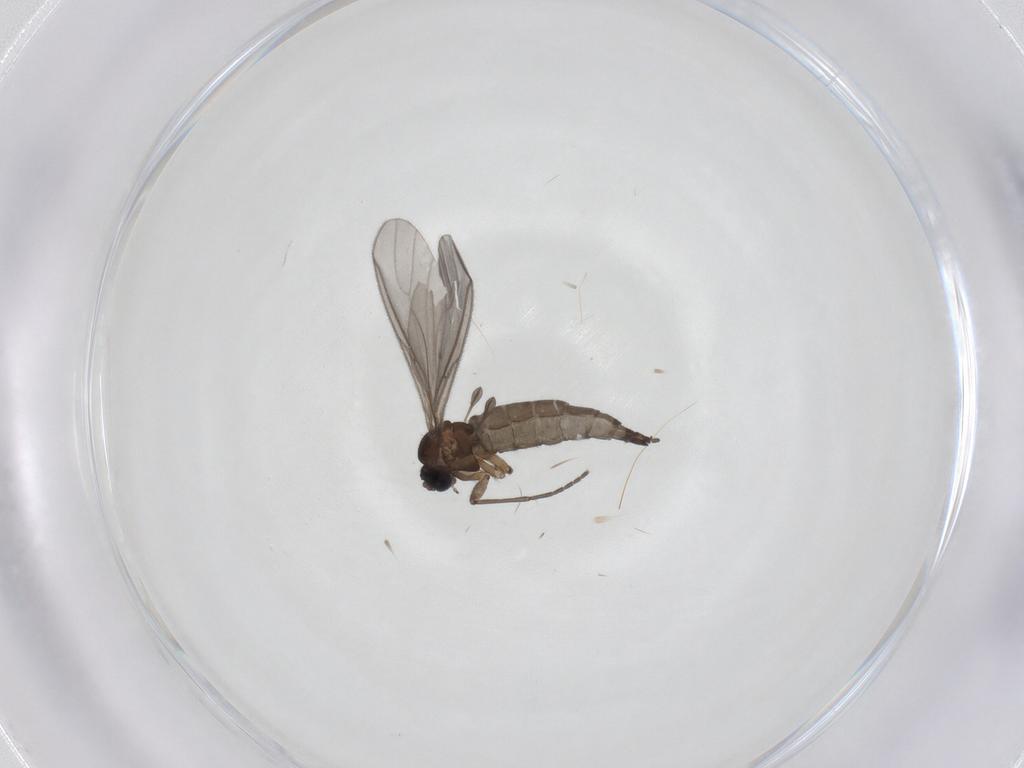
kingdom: Animalia
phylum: Arthropoda
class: Insecta
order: Diptera
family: Sciaridae
